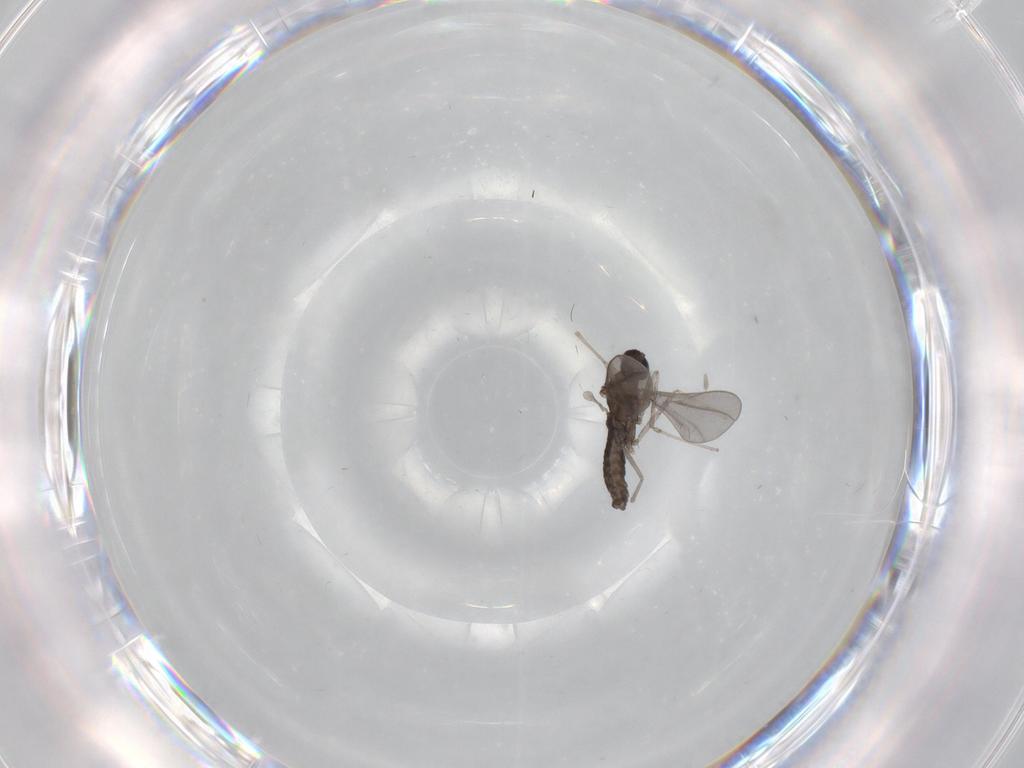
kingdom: Animalia
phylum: Arthropoda
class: Insecta
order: Diptera
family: Cecidomyiidae
